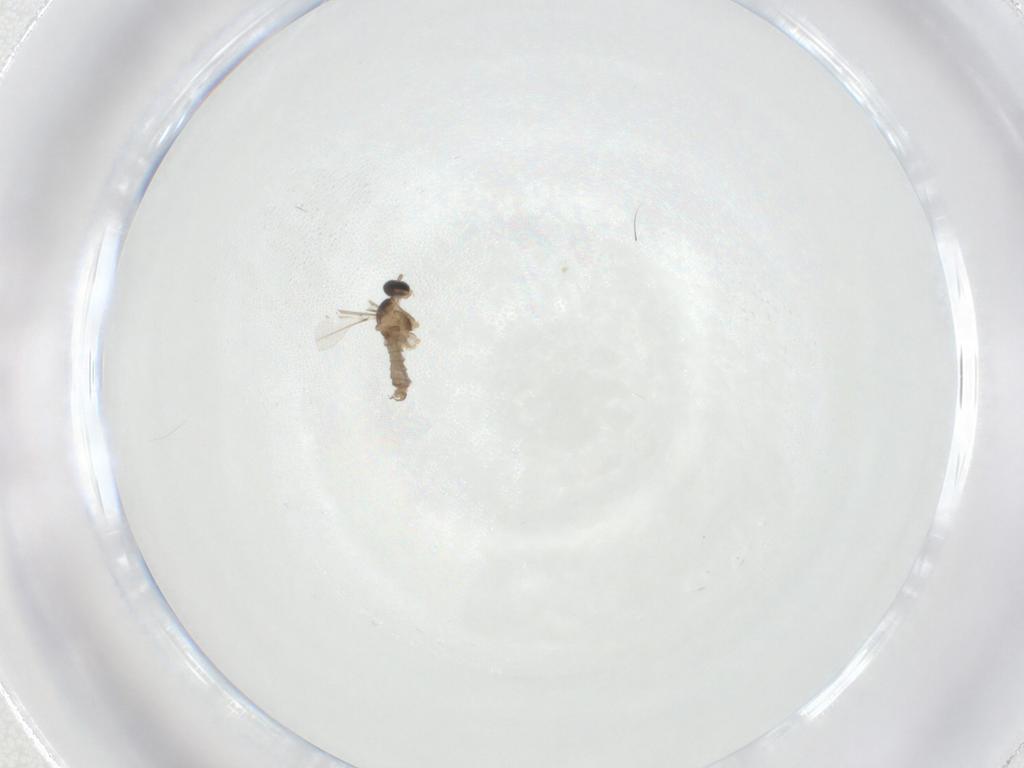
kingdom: Animalia
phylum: Arthropoda
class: Insecta
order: Diptera
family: Cecidomyiidae
